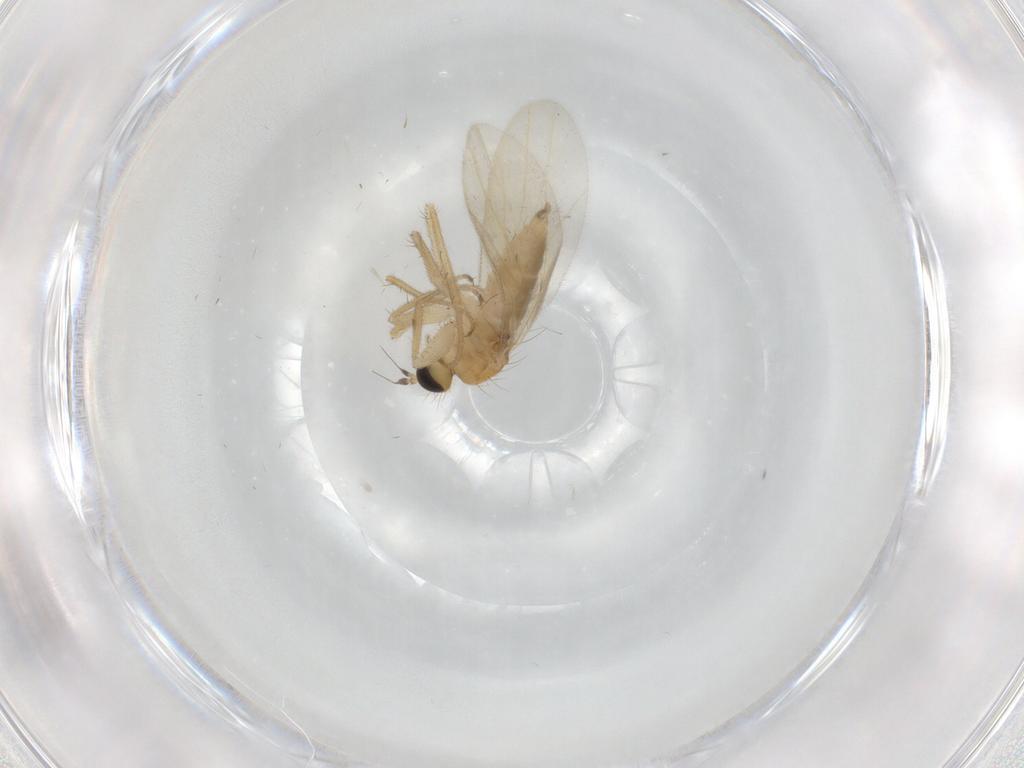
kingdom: Animalia
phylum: Arthropoda
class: Insecta
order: Diptera
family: Hybotidae
